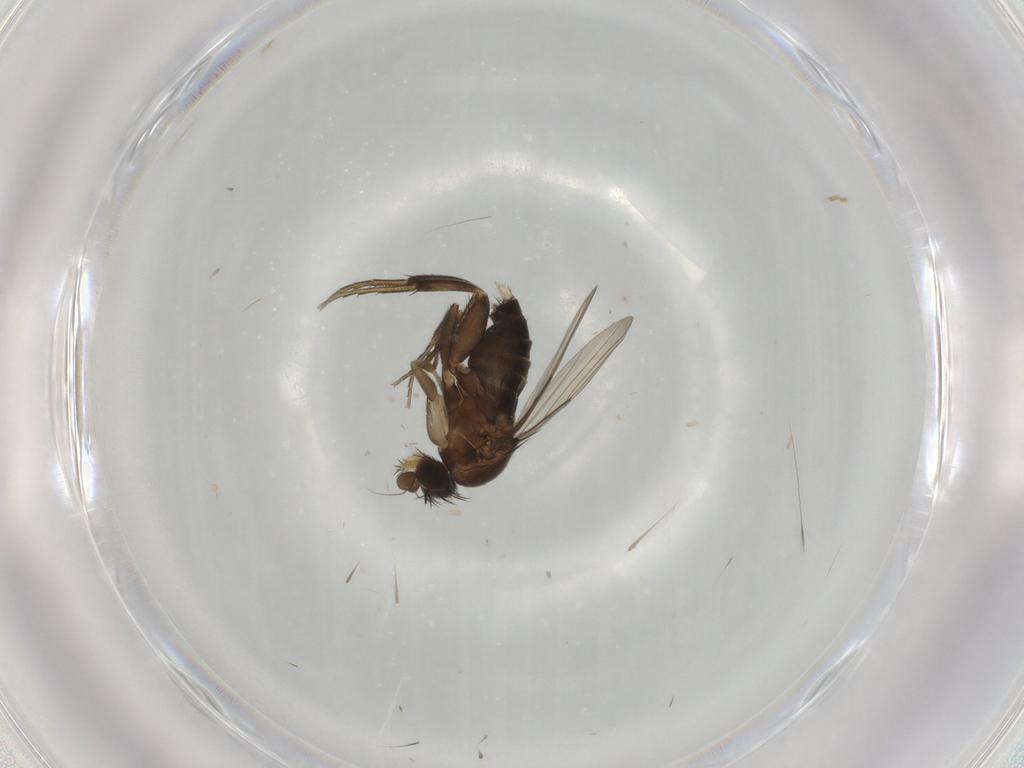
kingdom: Animalia
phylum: Arthropoda
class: Insecta
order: Diptera
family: Phoridae
